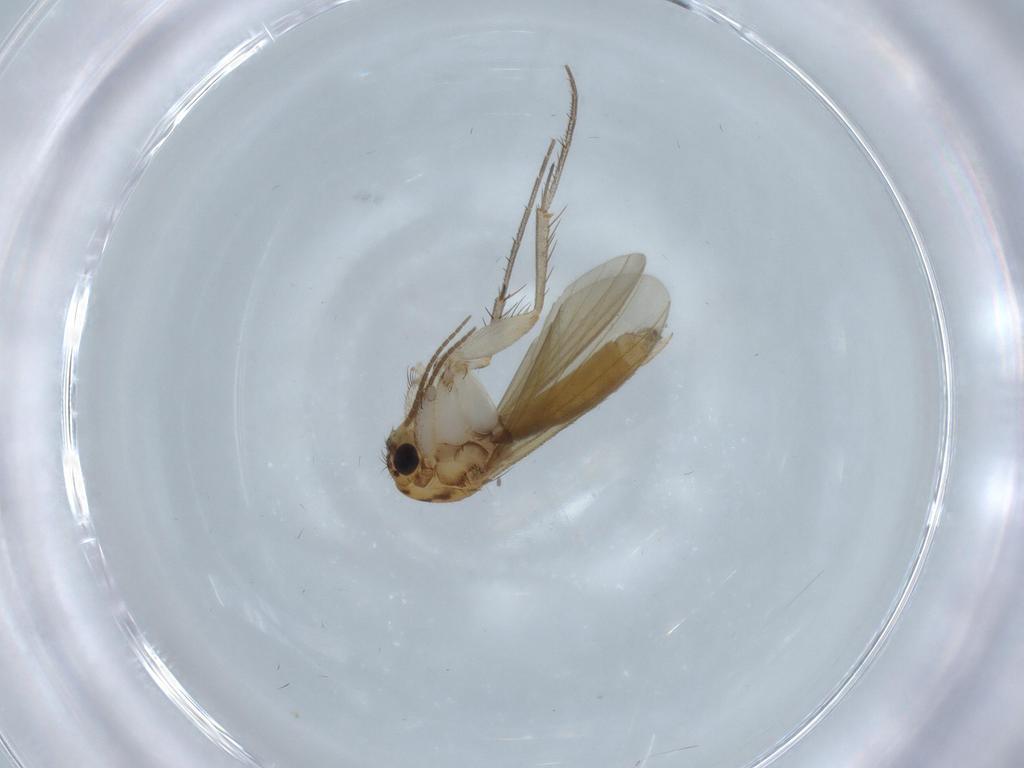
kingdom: Animalia
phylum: Arthropoda
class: Insecta
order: Diptera
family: Mycetophilidae
